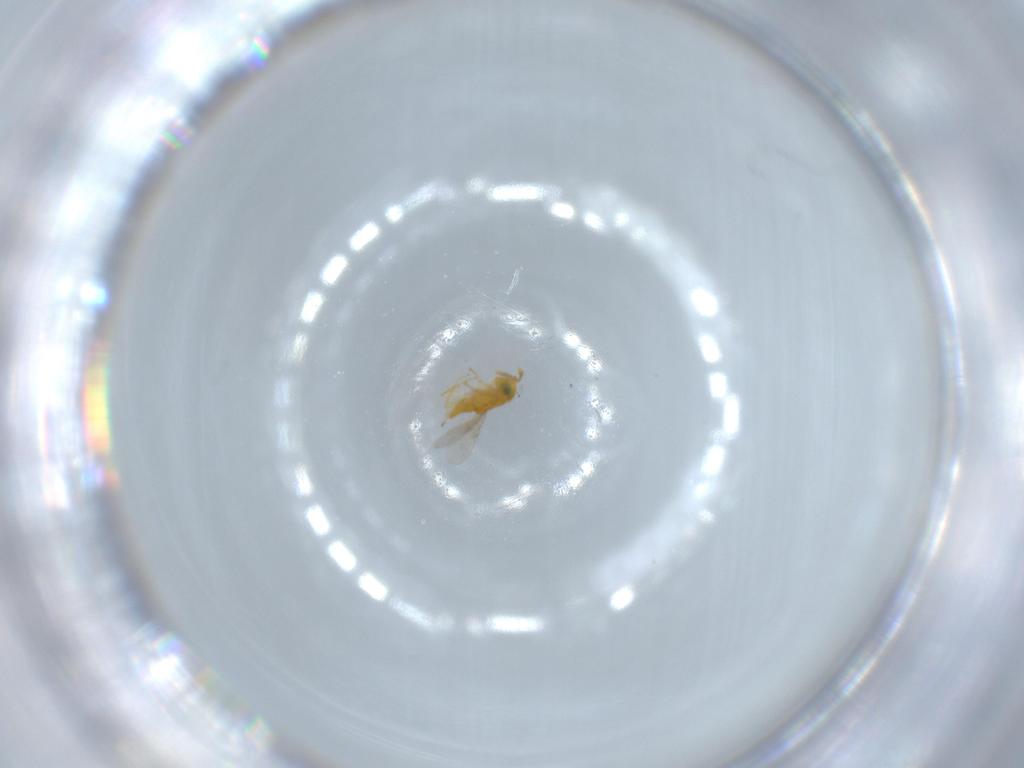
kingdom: Animalia
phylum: Arthropoda
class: Insecta
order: Hymenoptera
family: Encyrtidae
